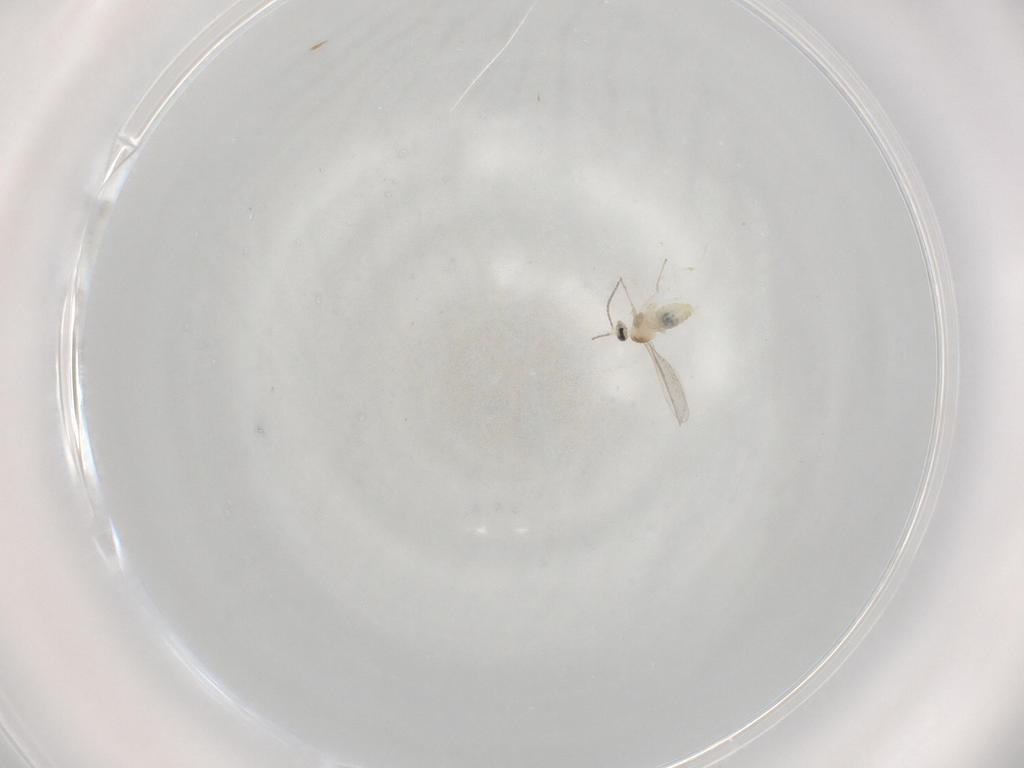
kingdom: Animalia
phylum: Arthropoda
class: Insecta
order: Diptera
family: Cecidomyiidae
